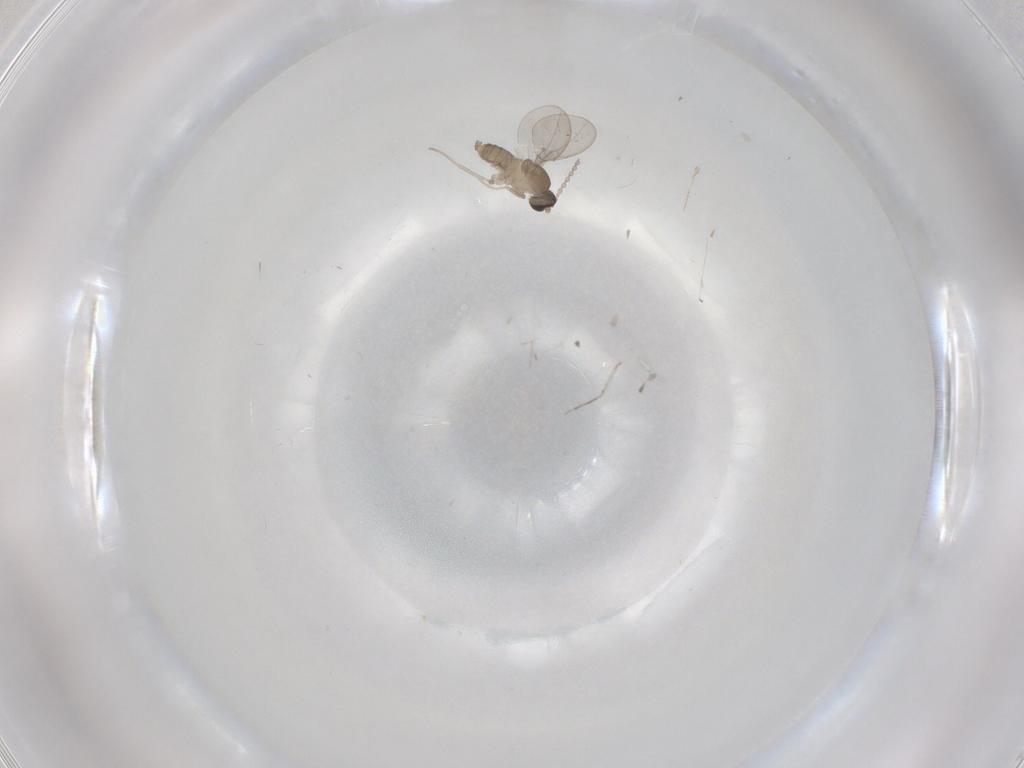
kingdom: Animalia
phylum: Arthropoda
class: Insecta
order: Diptera
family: Cecidomyiidae
